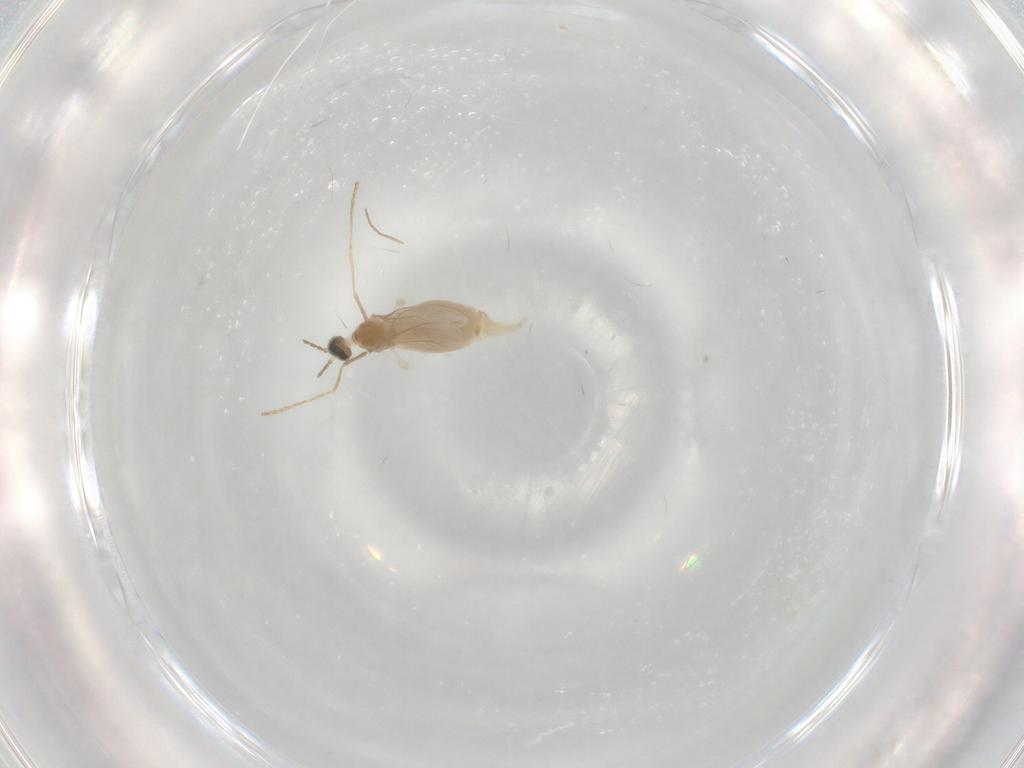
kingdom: Animalia
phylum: Arthropoda
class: Insecta
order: Diptera
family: Cecidomyiidae
